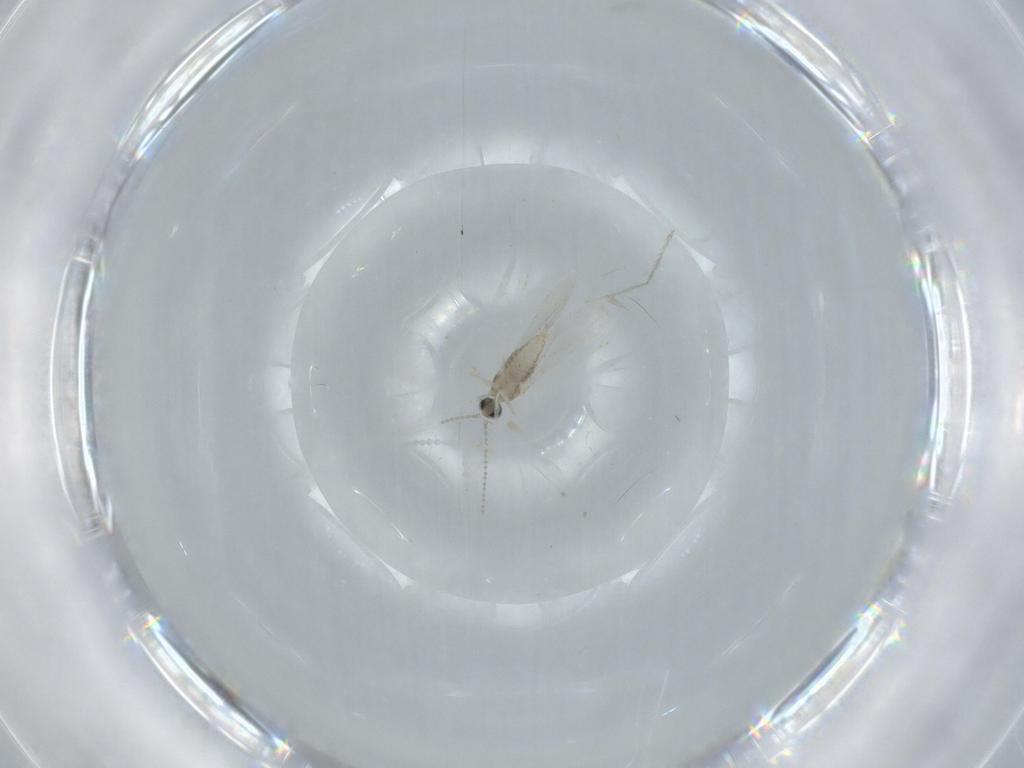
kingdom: Animalia
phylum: Arthropoda
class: Insecta
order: Diptera
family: Cecidomyiidae
